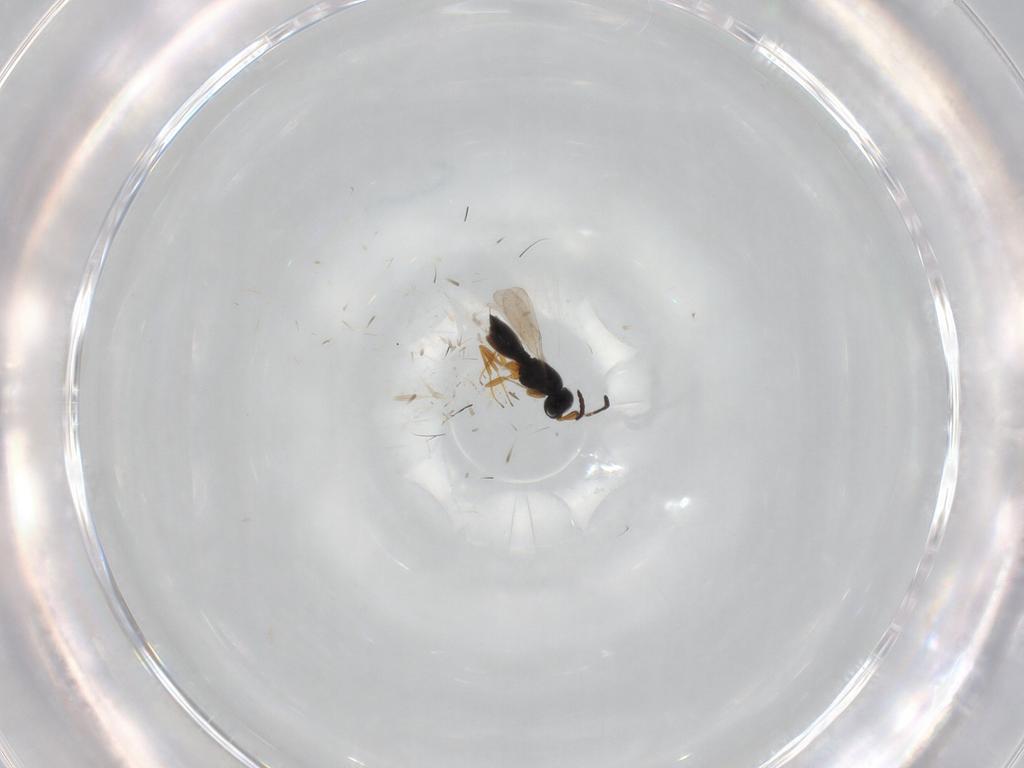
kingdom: Animalia
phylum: Arthropoda
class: Insecta
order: Hymenoptera
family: Scelionidae
